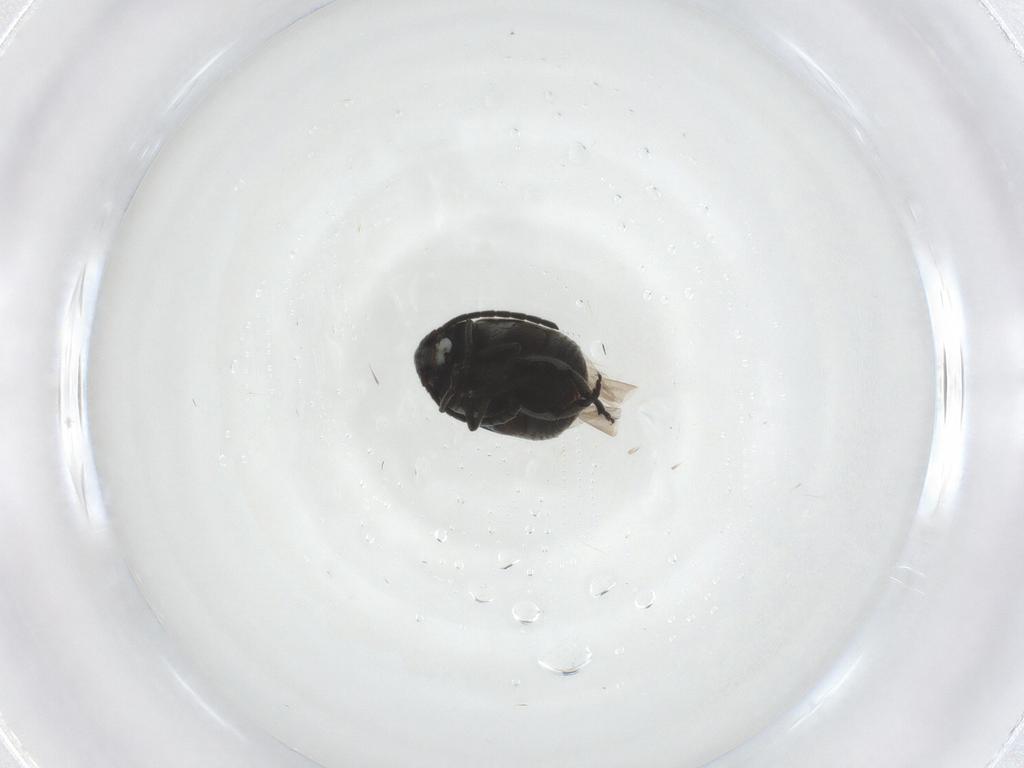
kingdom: Animalia
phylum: Arthropoda
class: Insecta
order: Coleoptera
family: Chrysomelidae
